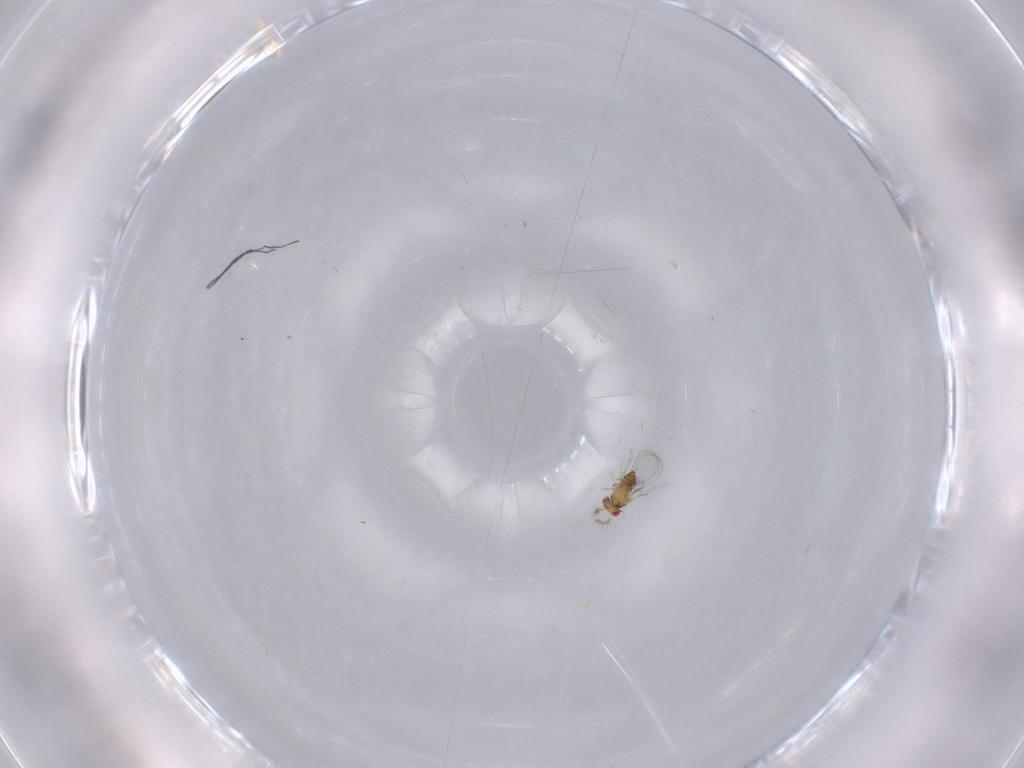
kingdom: Animalia
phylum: Arthropoda
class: Insecta
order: Hymenoptera
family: Trichogrammatidae
